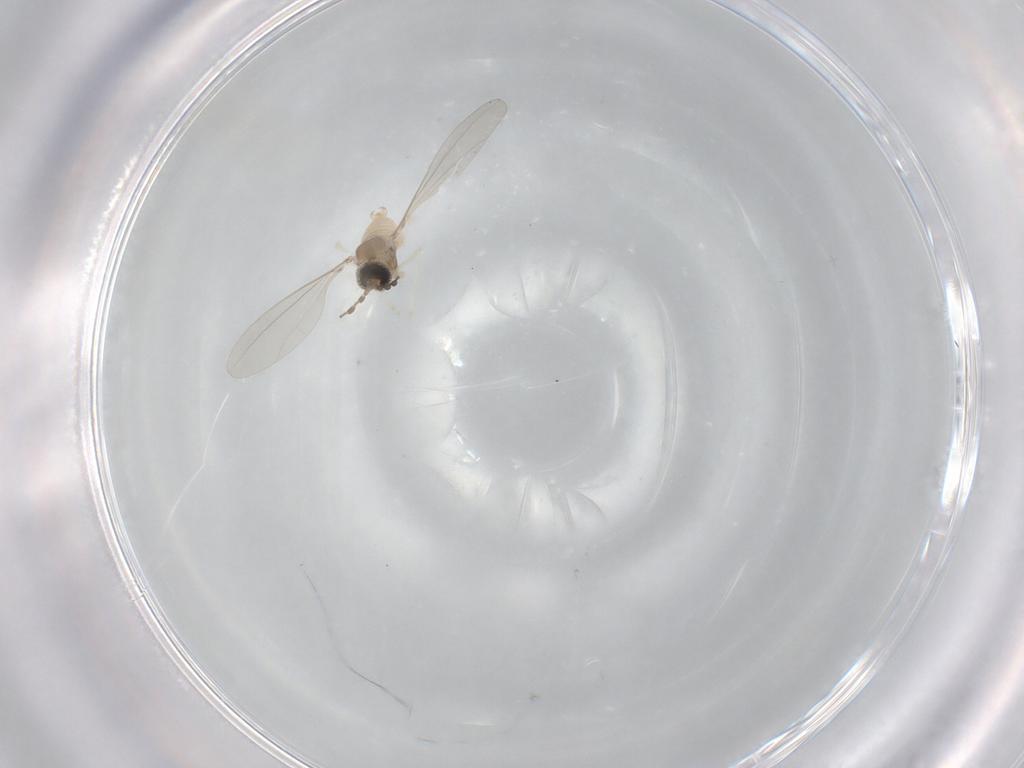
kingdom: Animalia
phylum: Arthropoda
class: Insecta
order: Diptera
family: Cecidomyiidae
